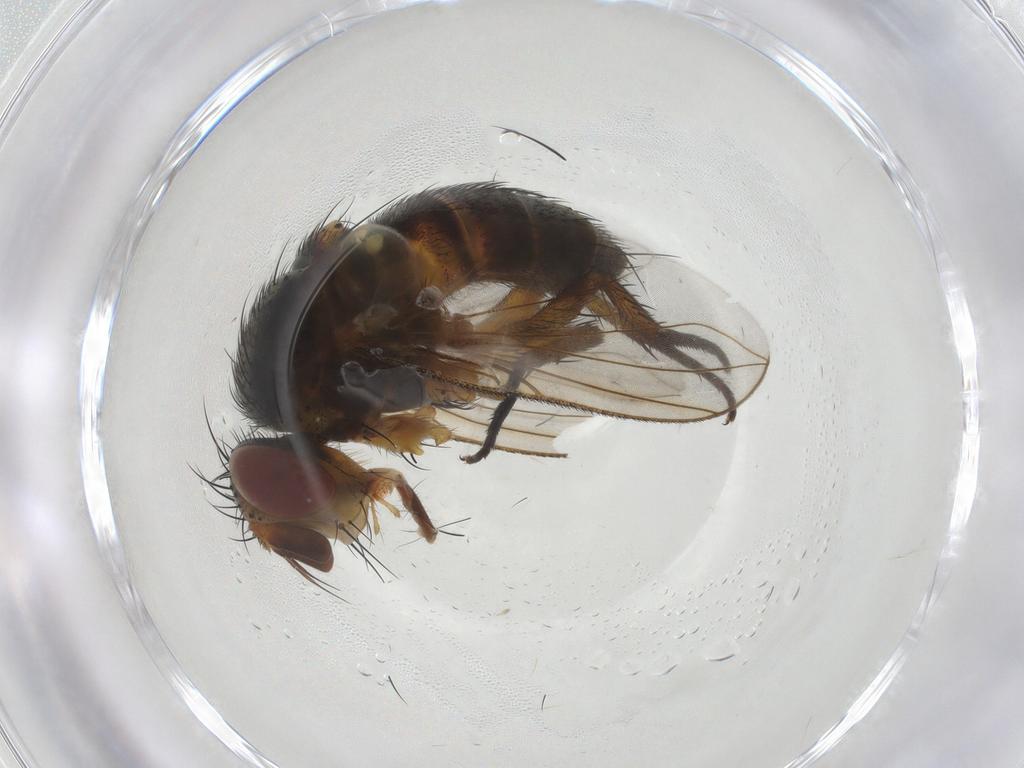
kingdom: Animalia
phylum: Arthropoda
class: Insecta
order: Diptera
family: Tachinidae
